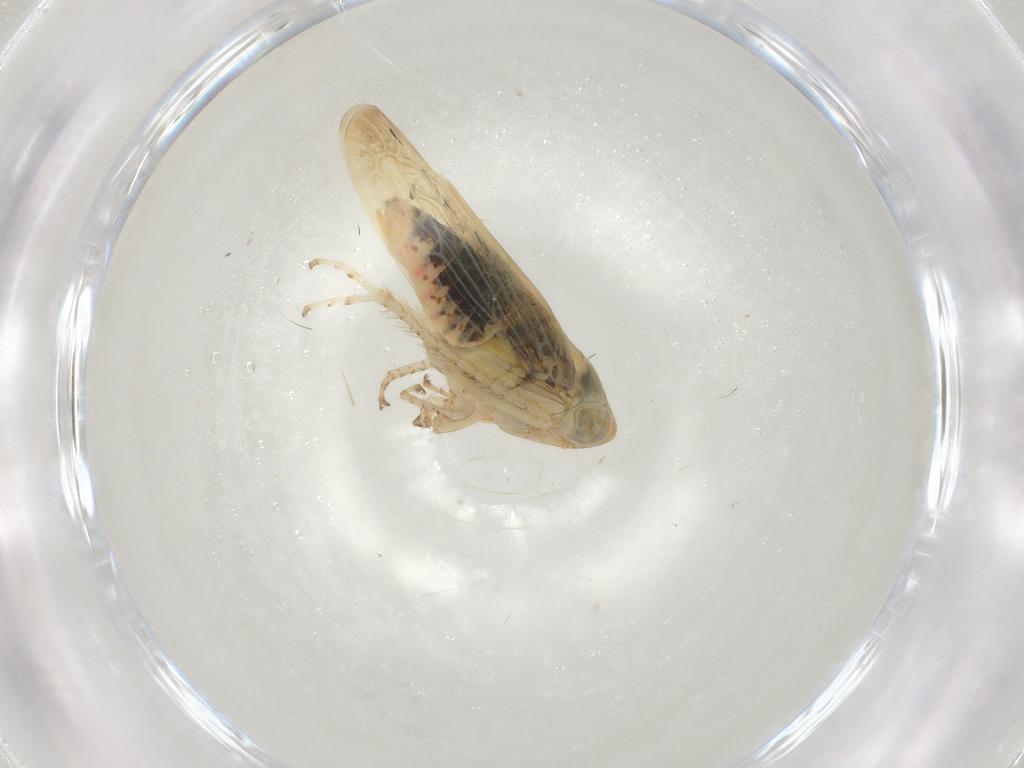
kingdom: Animalia
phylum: Arthropoda
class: Insecta
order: Hemiptera
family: Cicadellidae
